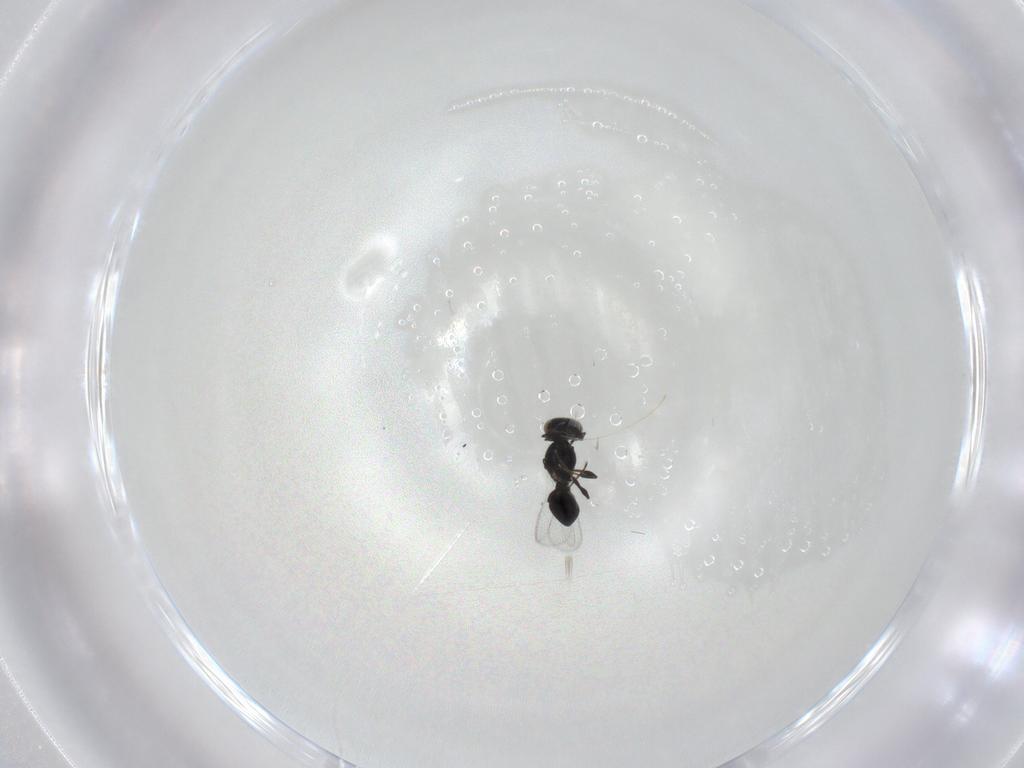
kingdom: Animalia
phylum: Arthropoda
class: Insecta
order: Hymenoptera
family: Platygastridae
